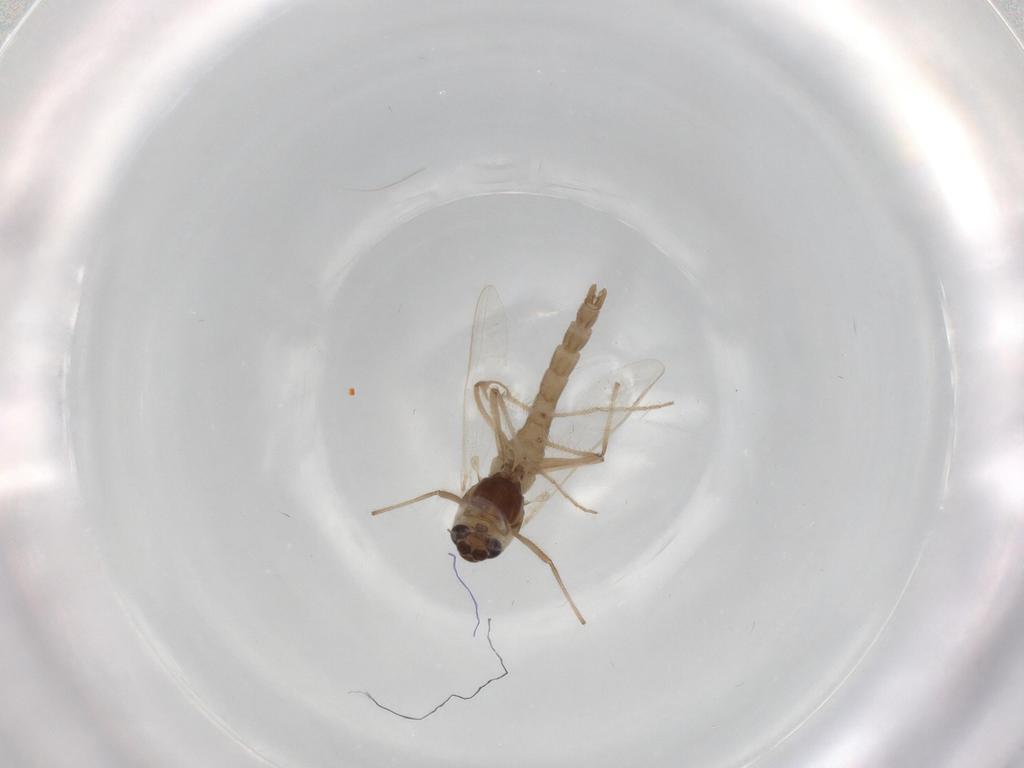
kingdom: Animalia
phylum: Arthropoda
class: Insecta
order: Diptera
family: Chironomidae
